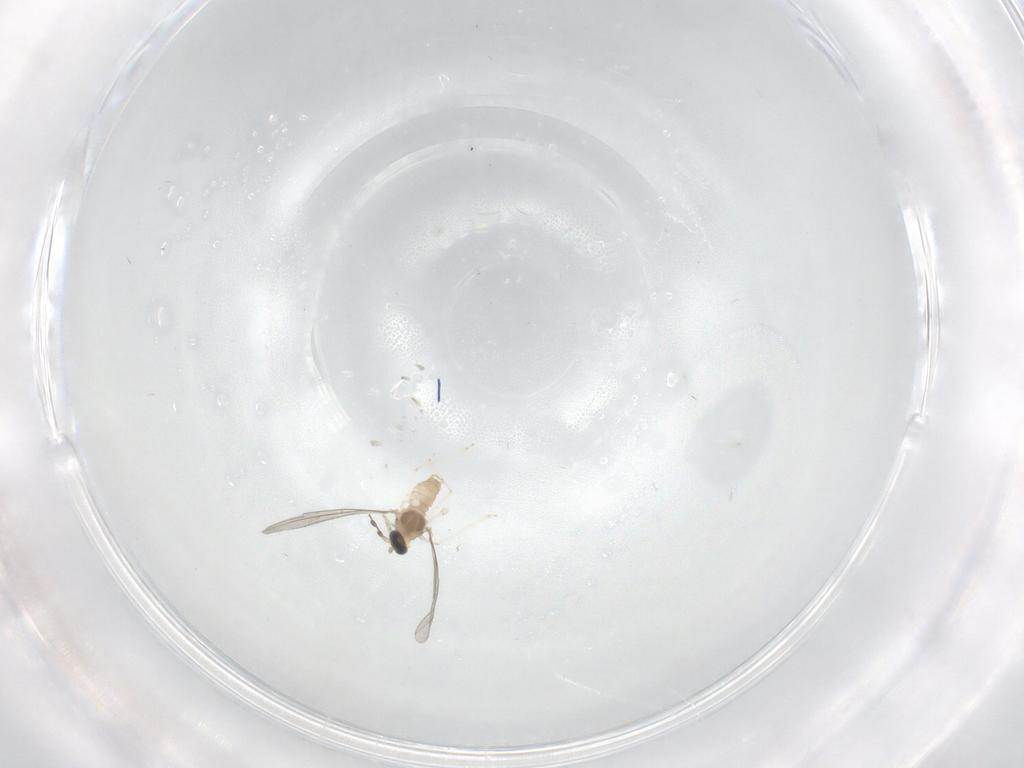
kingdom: Animalia
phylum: Arthropoda
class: Insecta
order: Diptera
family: Cecidomyiidae
